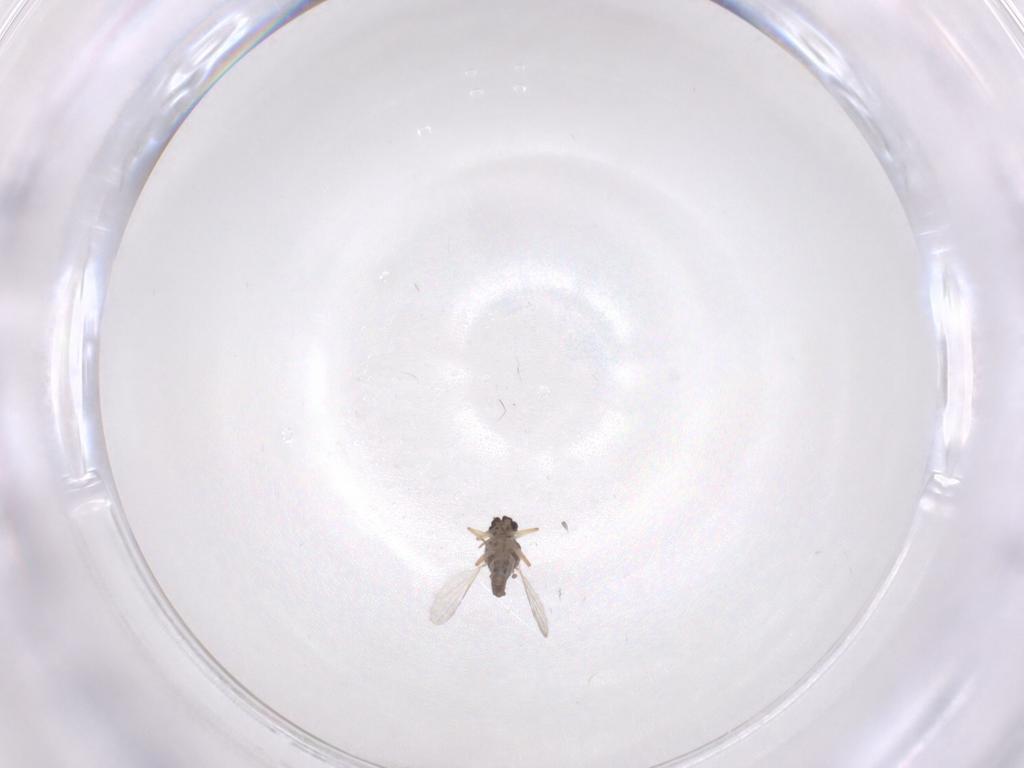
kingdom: Animalia
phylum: Arthropoda
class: Insecta
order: Diptera
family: Ceratopogonidae
